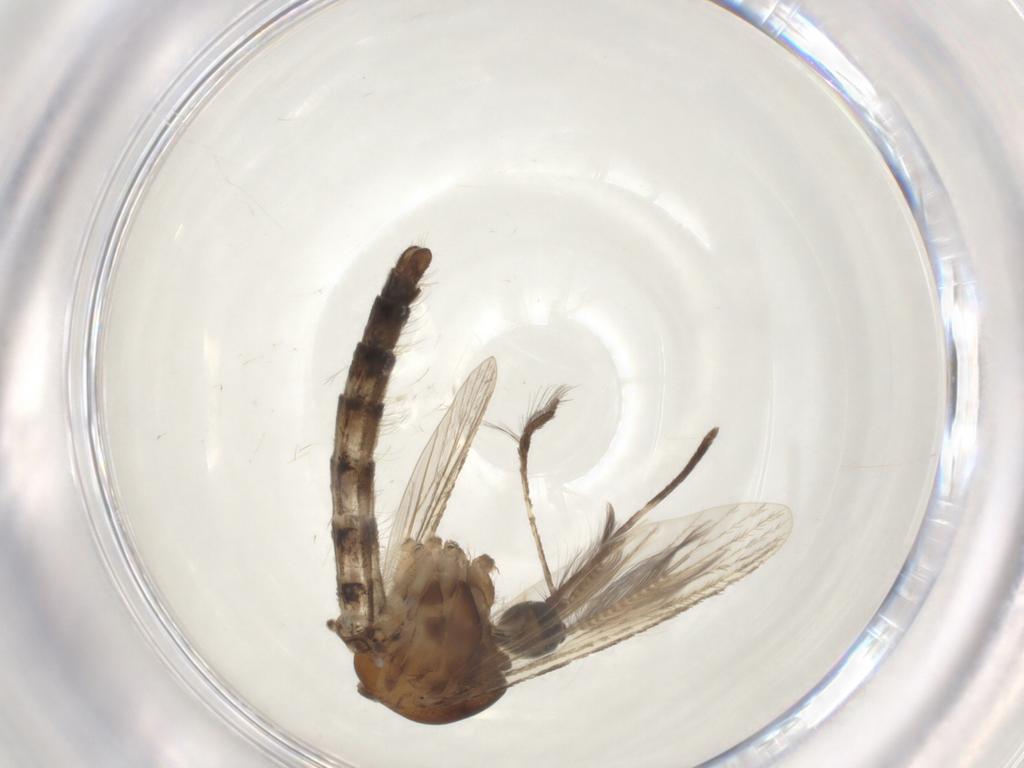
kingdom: Animalia
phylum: Arthropoda
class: Insecta
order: Diptera
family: Culicidae
